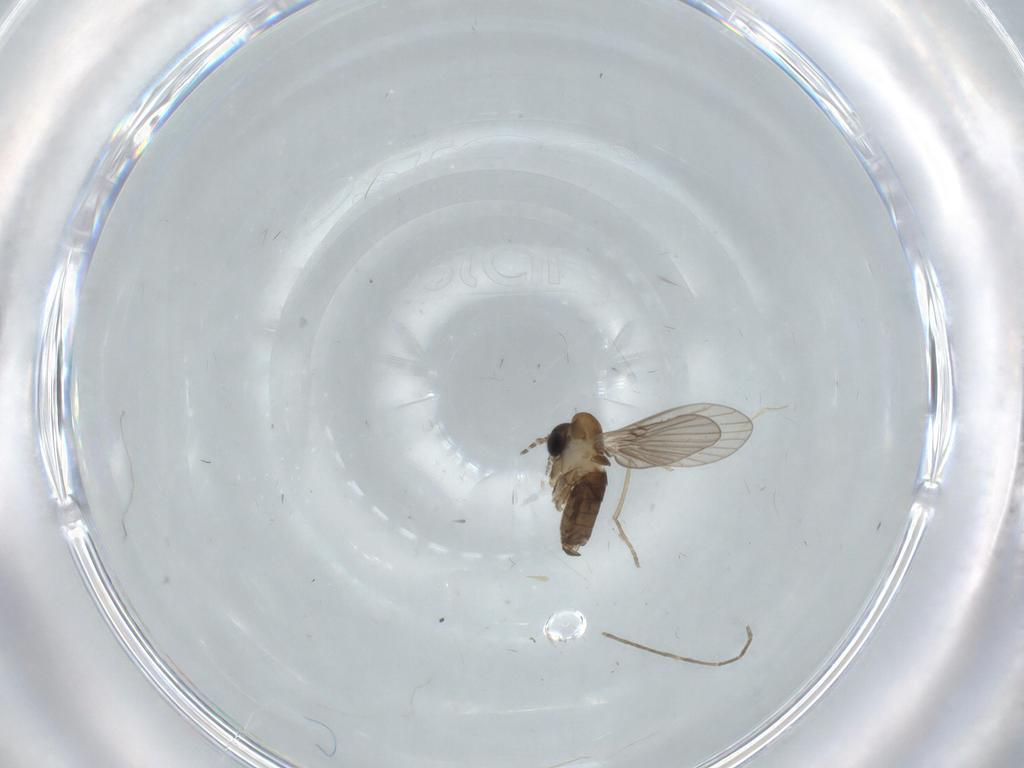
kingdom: Animalia
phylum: Arthropoda
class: Insecta
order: Diptera
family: Chironomidae
